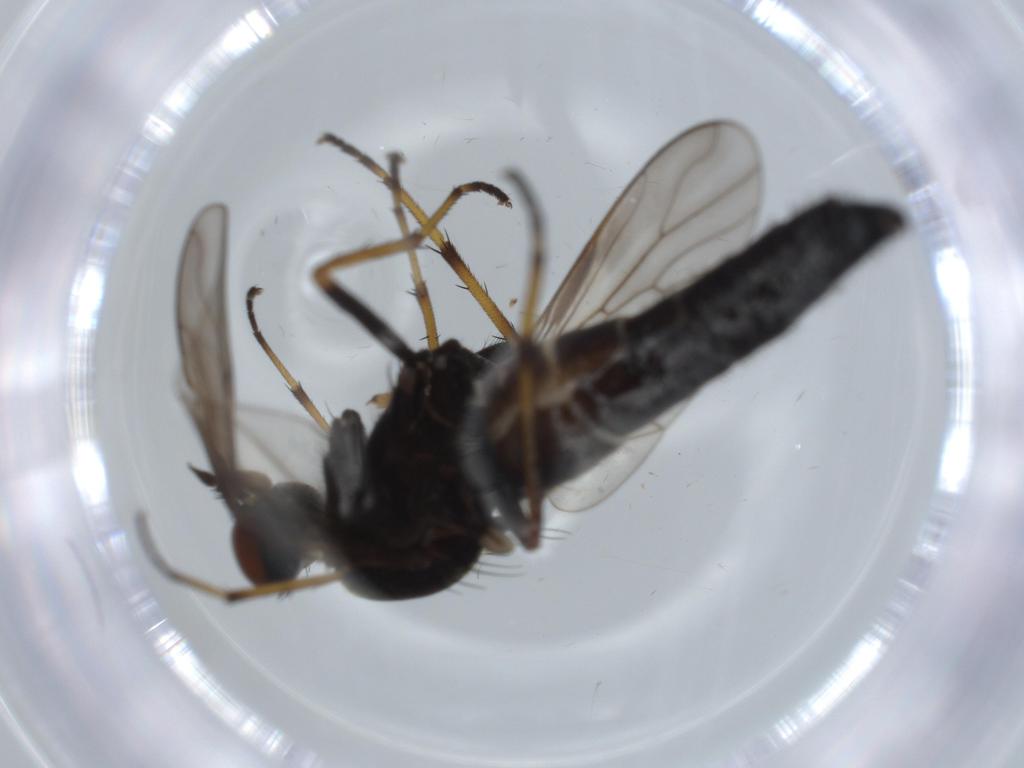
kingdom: Animalia
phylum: Arthropoda
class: Insecta
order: Diptera
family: Therevidae
